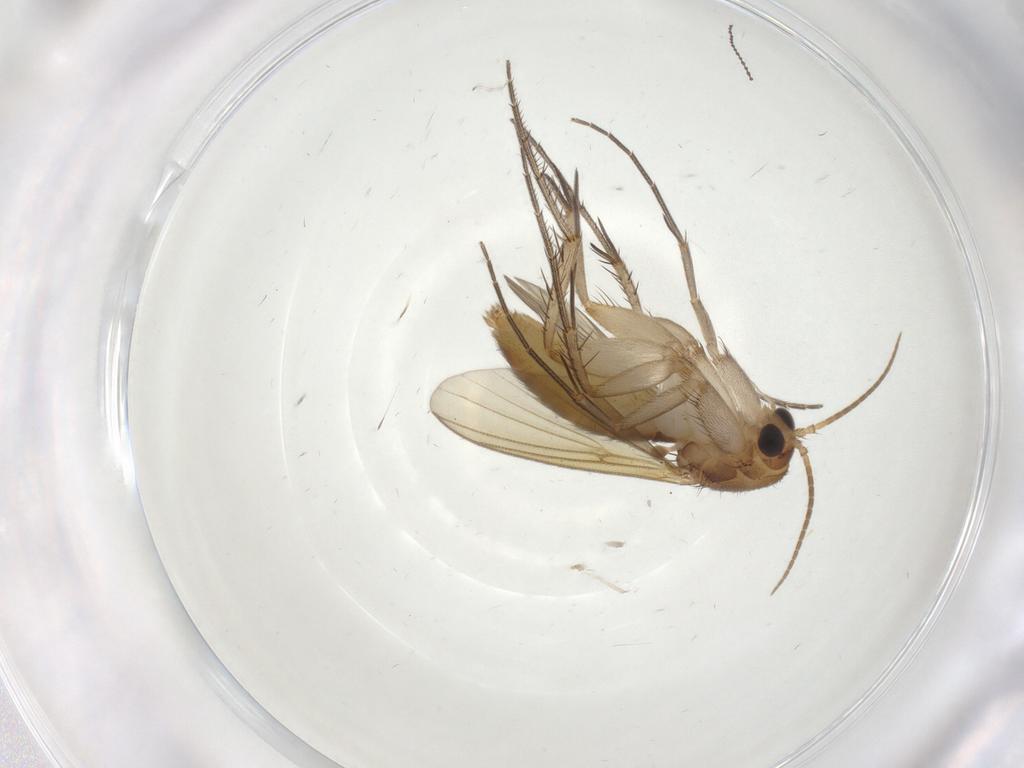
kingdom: Animalia
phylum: Arthropoda
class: Insecta
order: Diptera
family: Mycetophilidae
